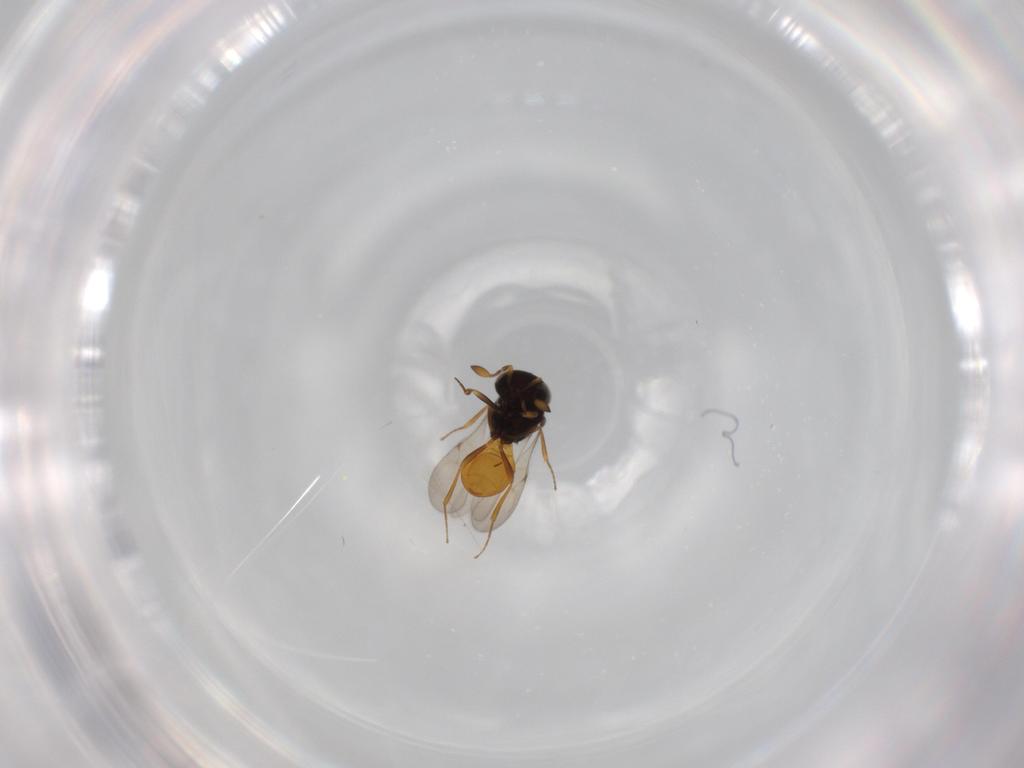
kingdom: Animalia
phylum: Arthropoda
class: Insecta
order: Hymenoptera
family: Scelionidae
